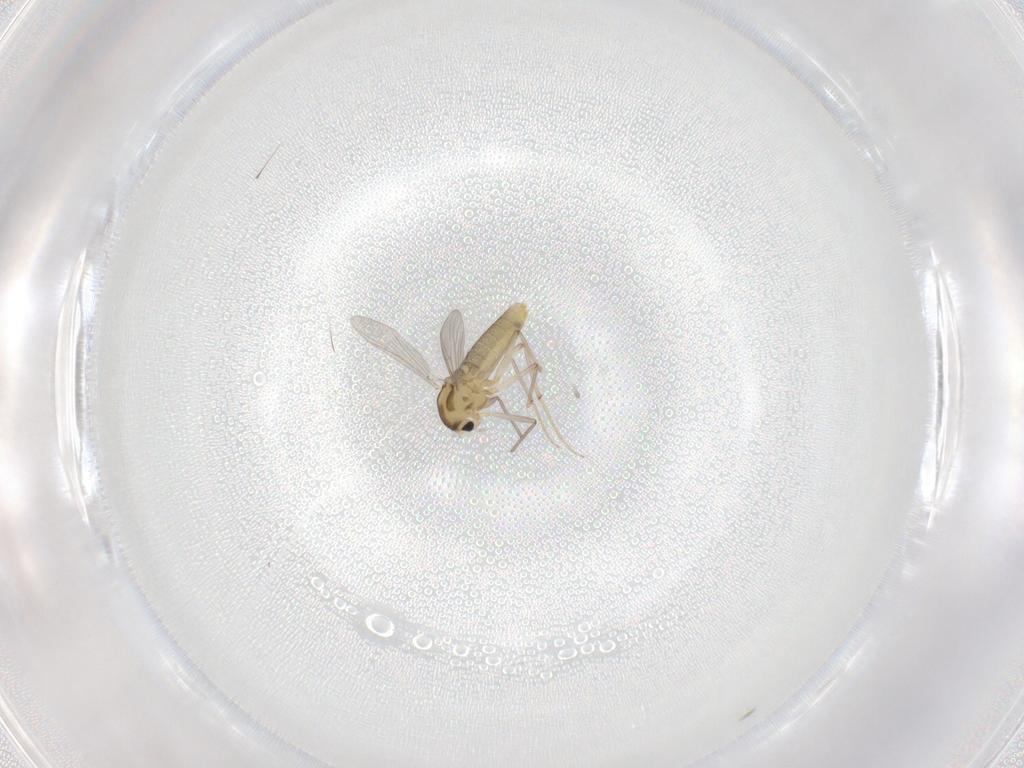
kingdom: Animalia
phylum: Arthropoda
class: Insecta
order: Diptera
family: Chironomidae
